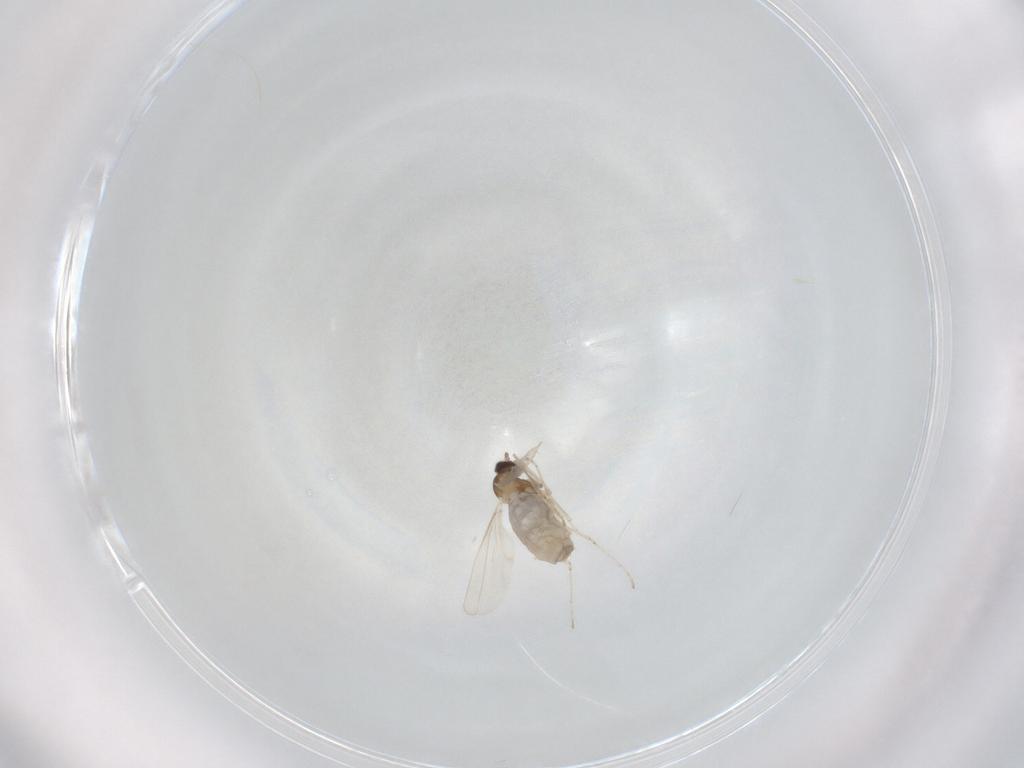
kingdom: Animalia
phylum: Arthropoda
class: Insecta
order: Diptera
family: Cecidomyiidae
